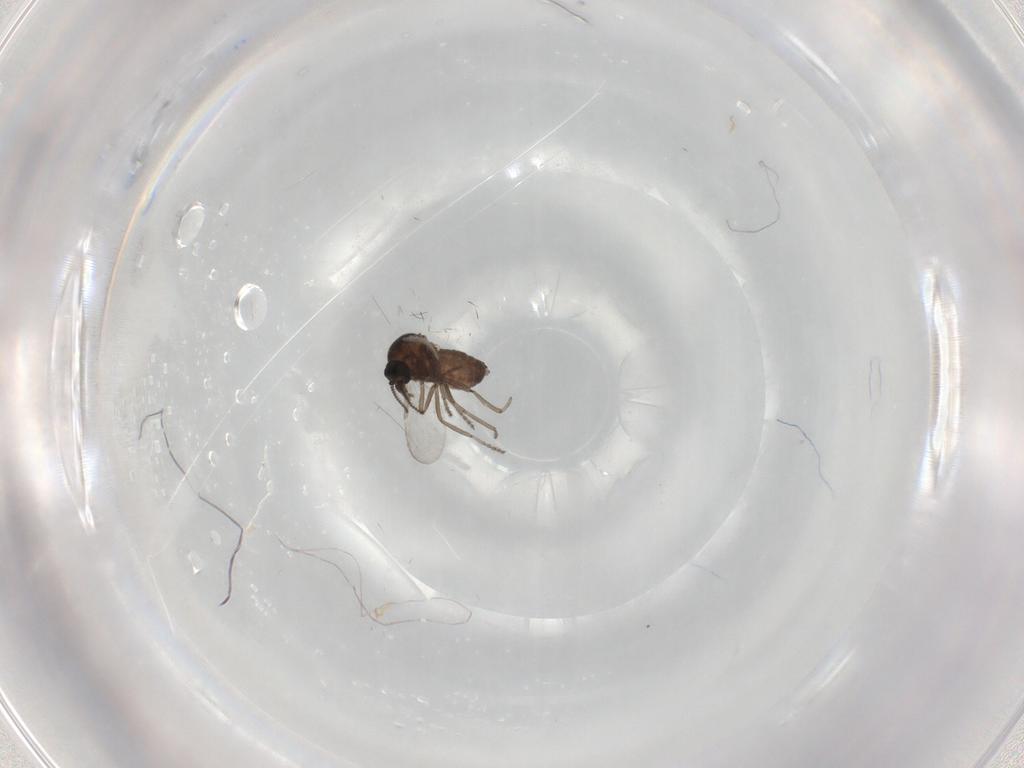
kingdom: Animalia
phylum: Arthropoda
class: Insecta
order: Diptera
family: Ceratopogonidae
